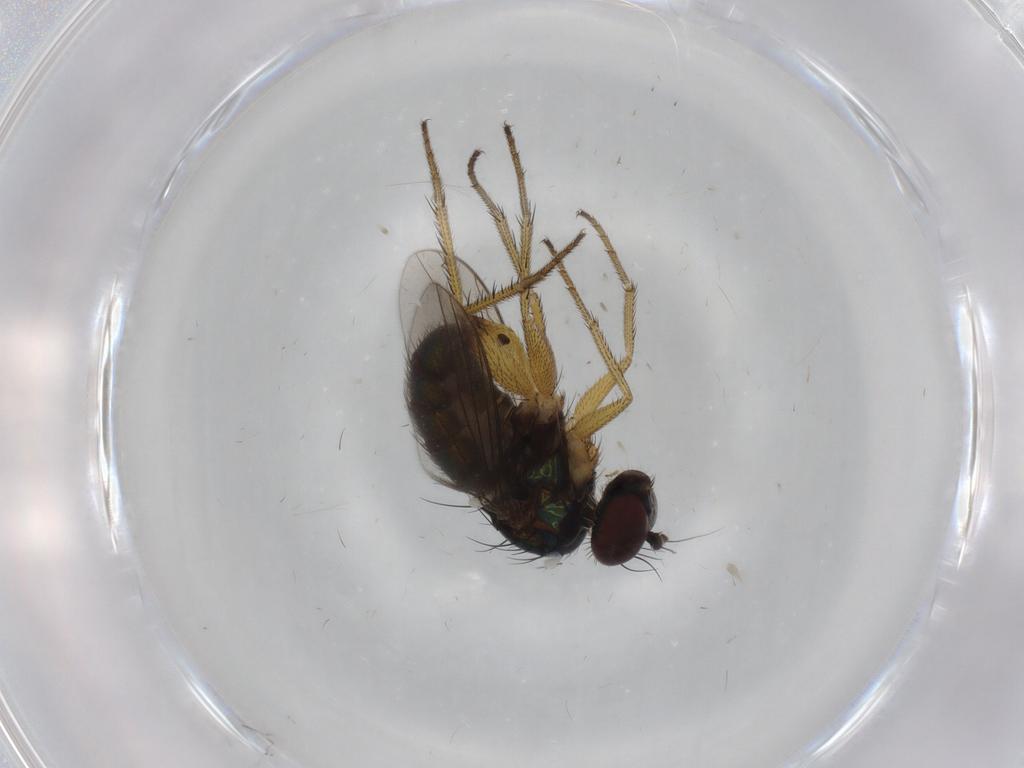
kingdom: Animalia
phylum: Arthropoda
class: Insecta
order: Diptera
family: Dolichopodidae
